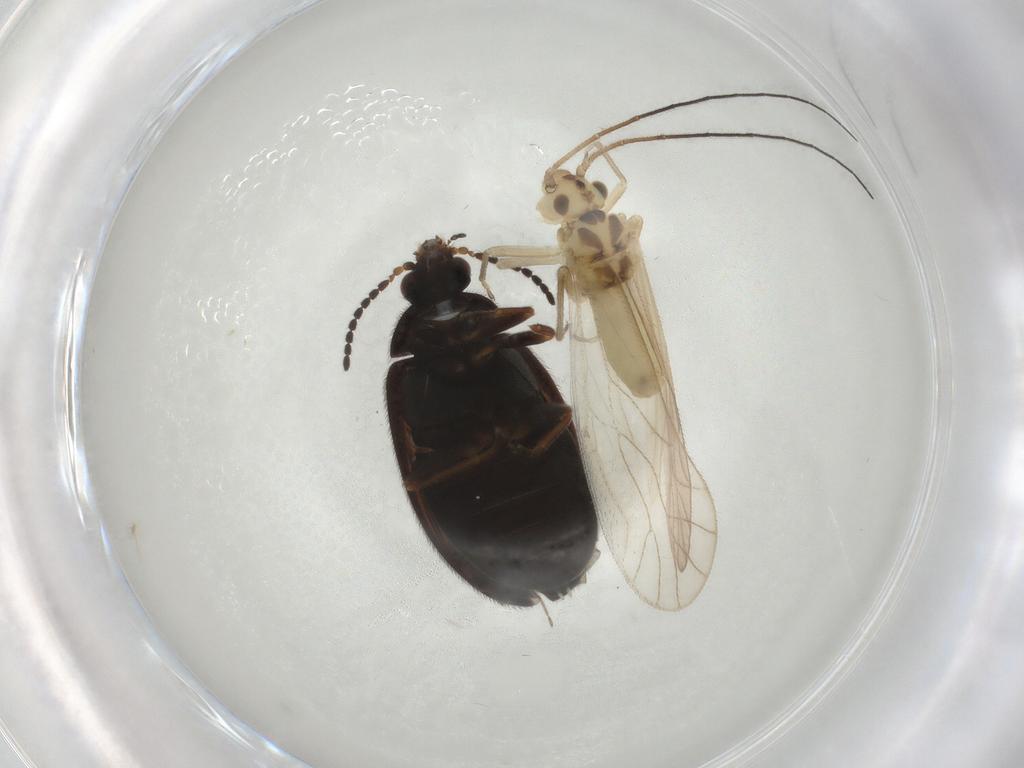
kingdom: Animalia
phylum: Arthropoda
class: Insecta
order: Psocodea
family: Caeciliusidae
